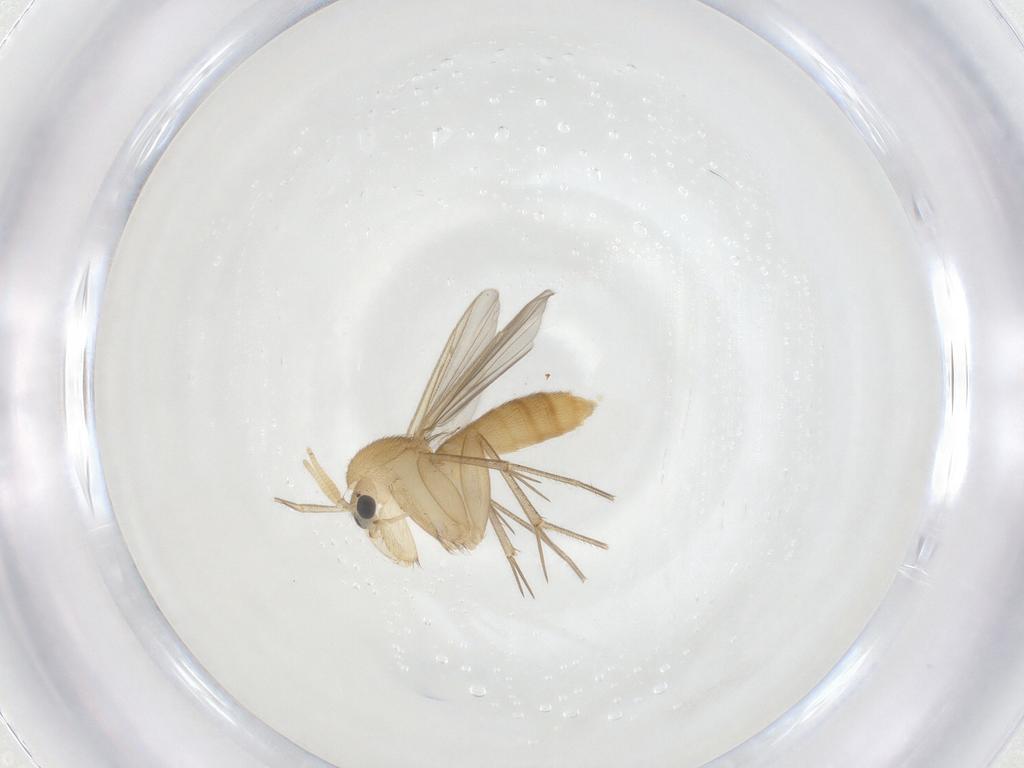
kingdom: Animalia
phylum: Arthropoda
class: Insecta
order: Diptera
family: Mycetophilidae
